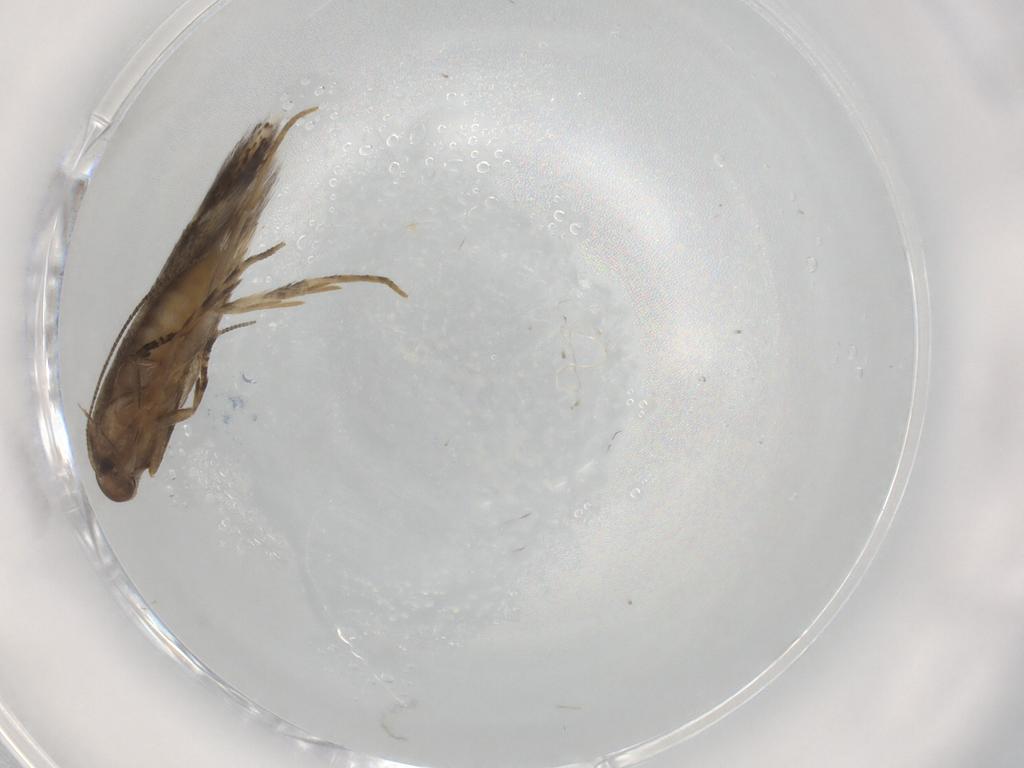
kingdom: Animalia
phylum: Arthropoda
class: Insecta
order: Lepidoptera
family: Elachistidae
